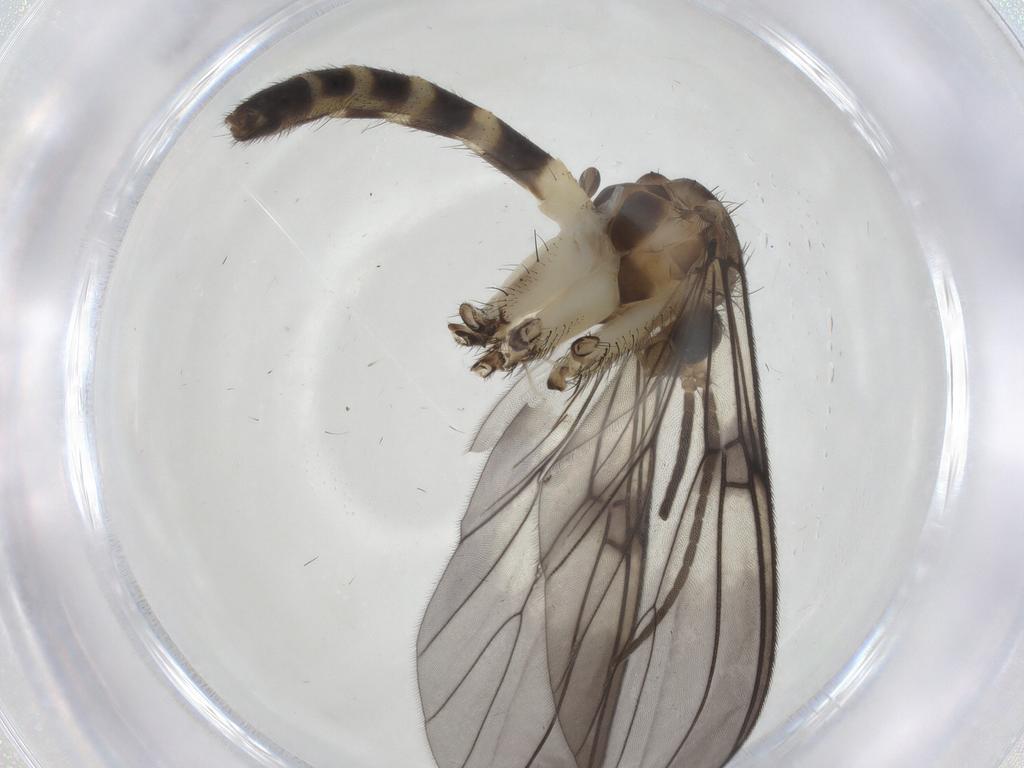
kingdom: Animalia
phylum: Arthropoda
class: Insecta
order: Diptera
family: Mycetophilidae
